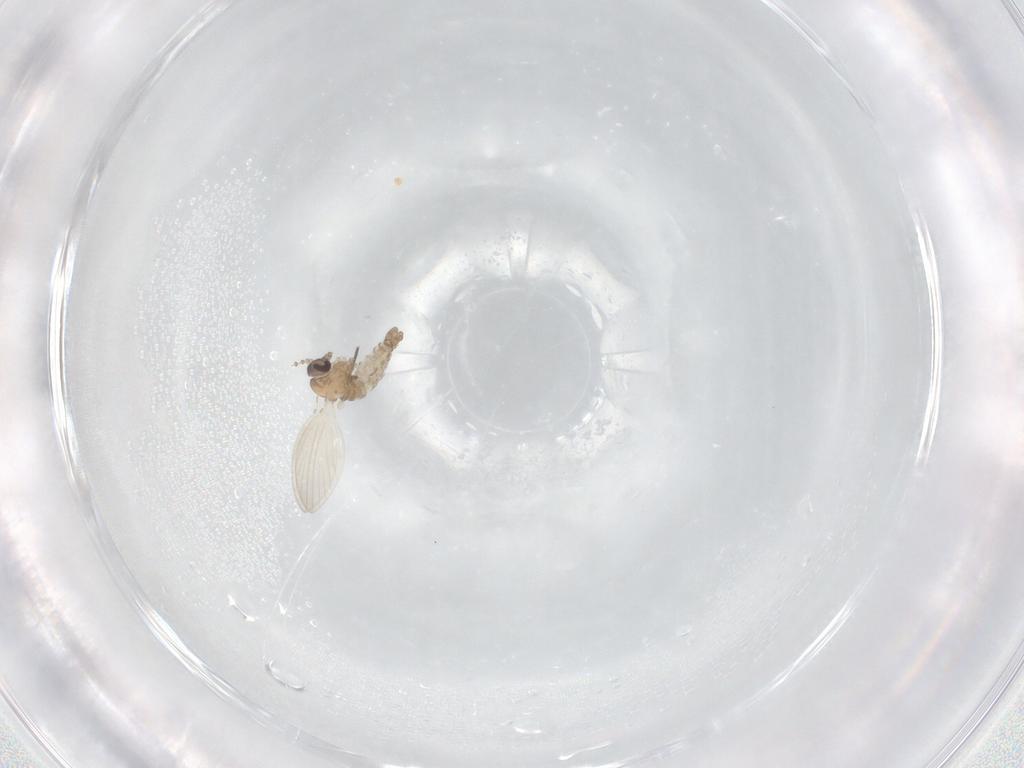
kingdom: Animalia
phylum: Arthropoda
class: Insecta
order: Diptera
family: Psychodidae
